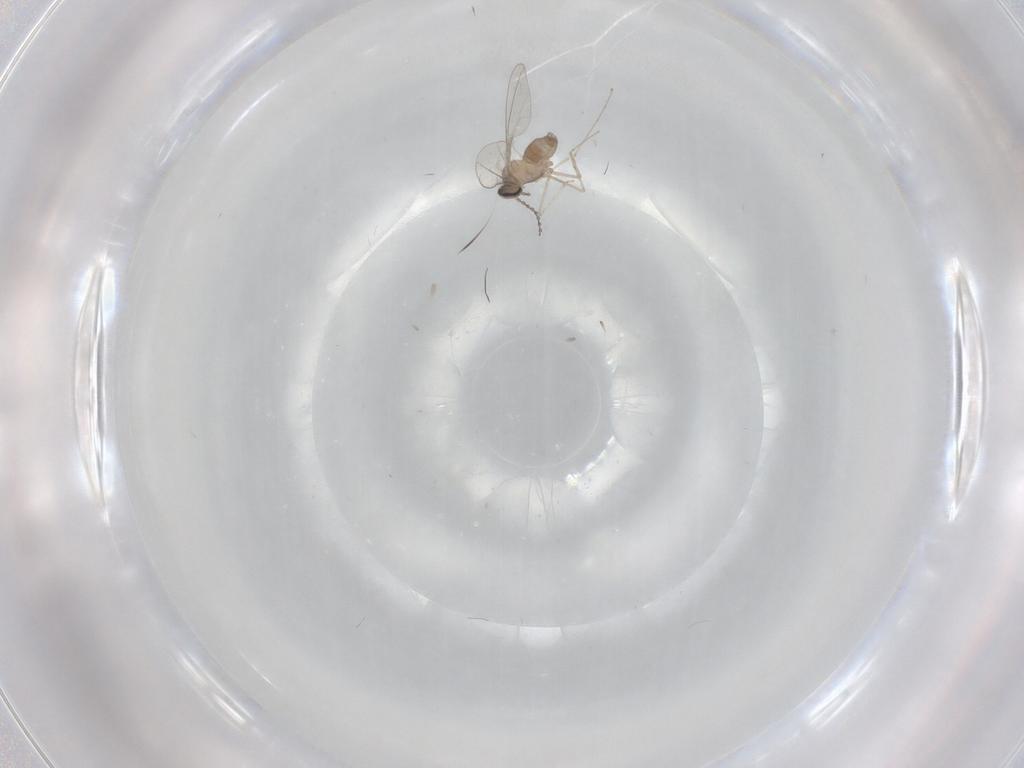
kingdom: Animalia
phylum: Arthropoda
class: Insecta
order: Diptera
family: Cecidomyiidae
